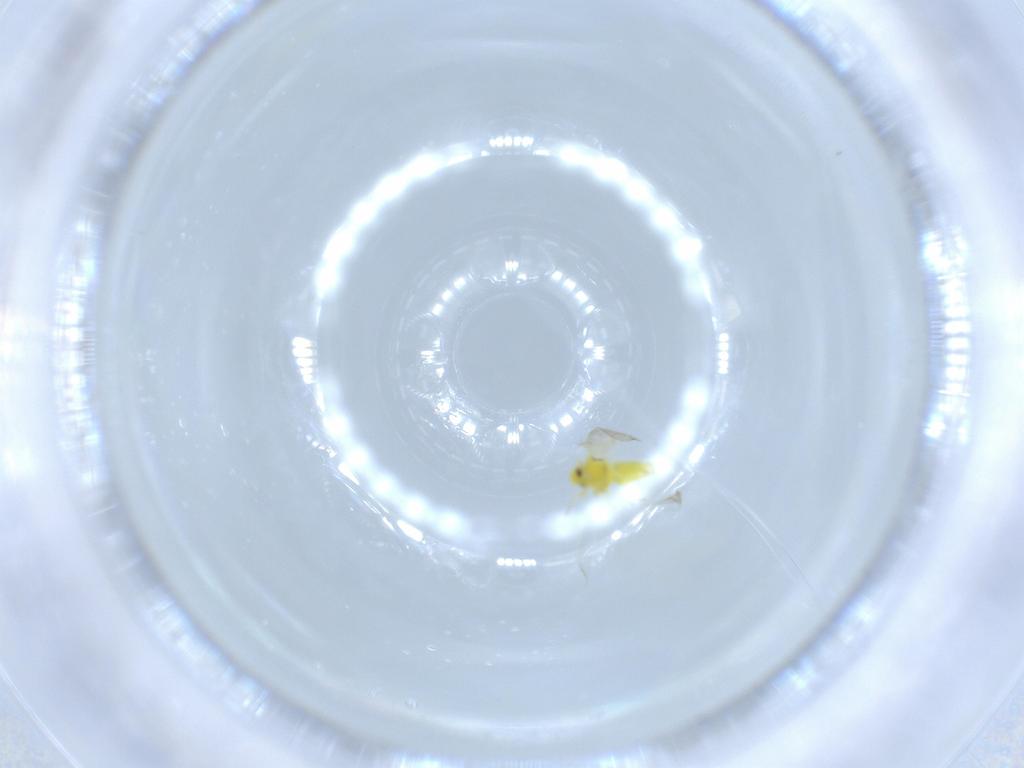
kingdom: Animalia
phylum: Arthropoda
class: Insecta
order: Hemiptera
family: Aleyrodidae
